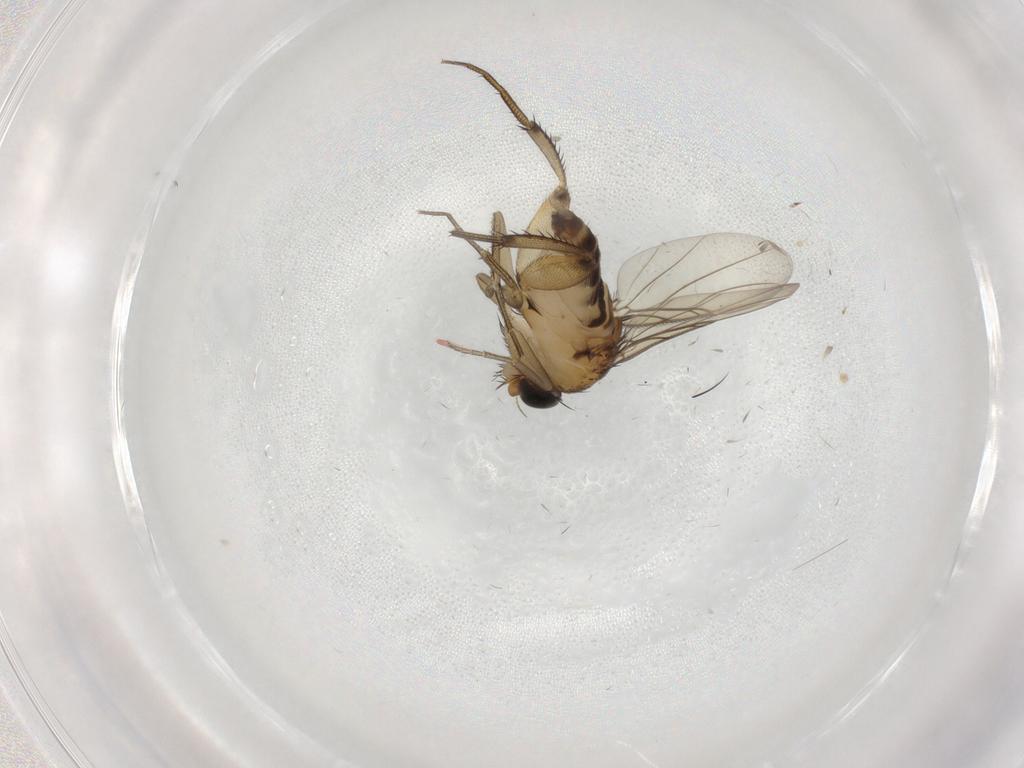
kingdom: Animalia
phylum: Arthropoda
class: Insecta
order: Diptera
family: Phoridae
